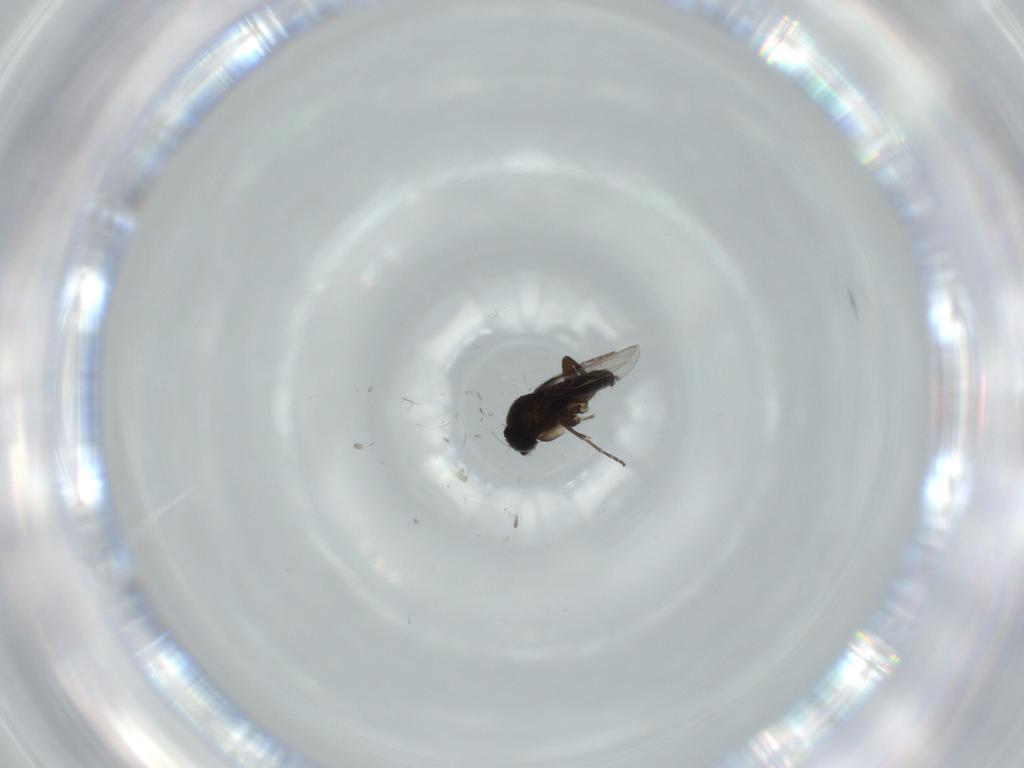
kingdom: Animalia
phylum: Arthropoda
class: Insecta
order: Diptera
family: Phoridae
